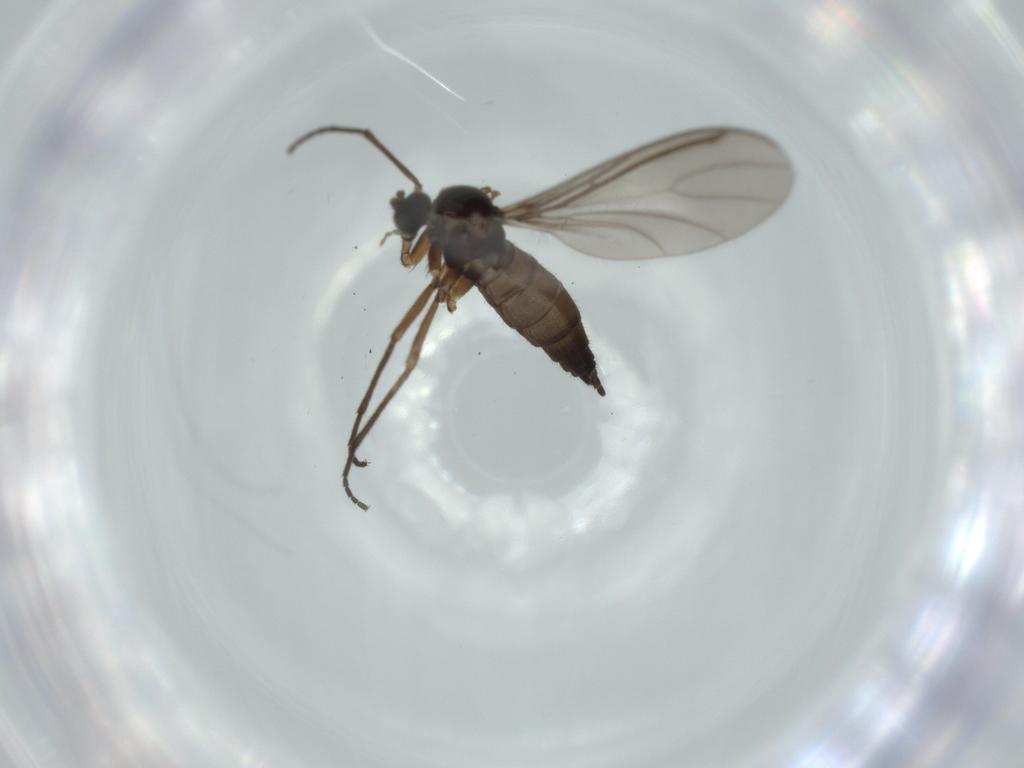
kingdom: Animalia
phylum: Arthropoda
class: Insecta
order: Diptera
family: Sciaridae
